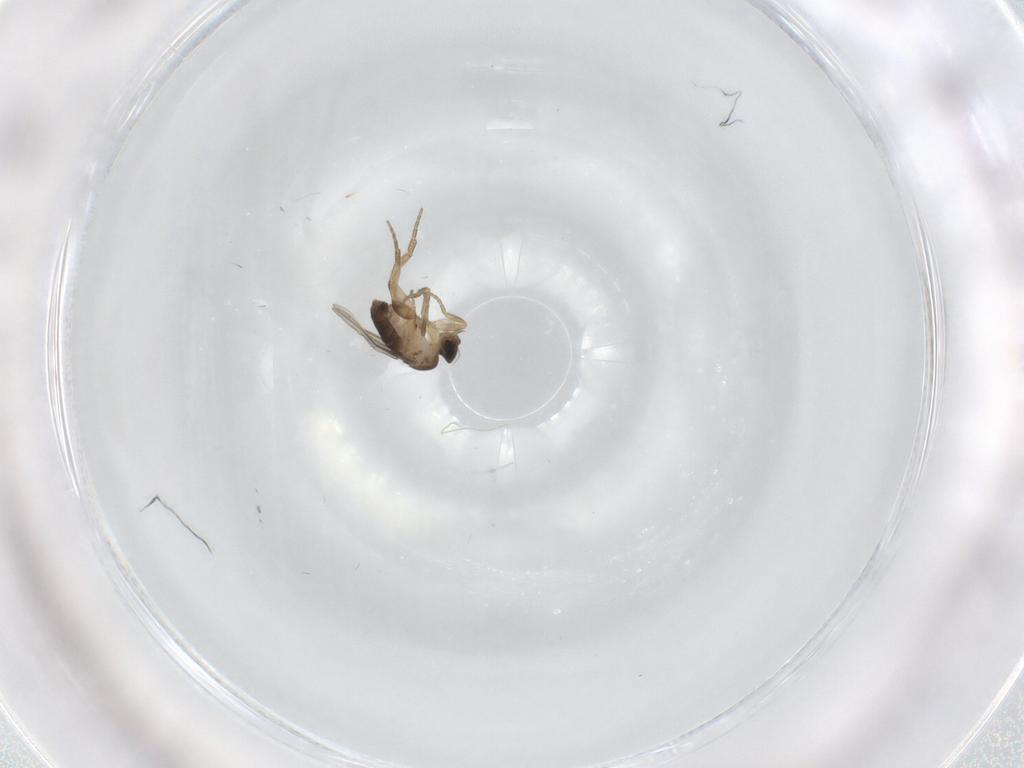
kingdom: Animalia
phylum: Arthropoda
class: Insecta
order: Diptera
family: Phoridae
